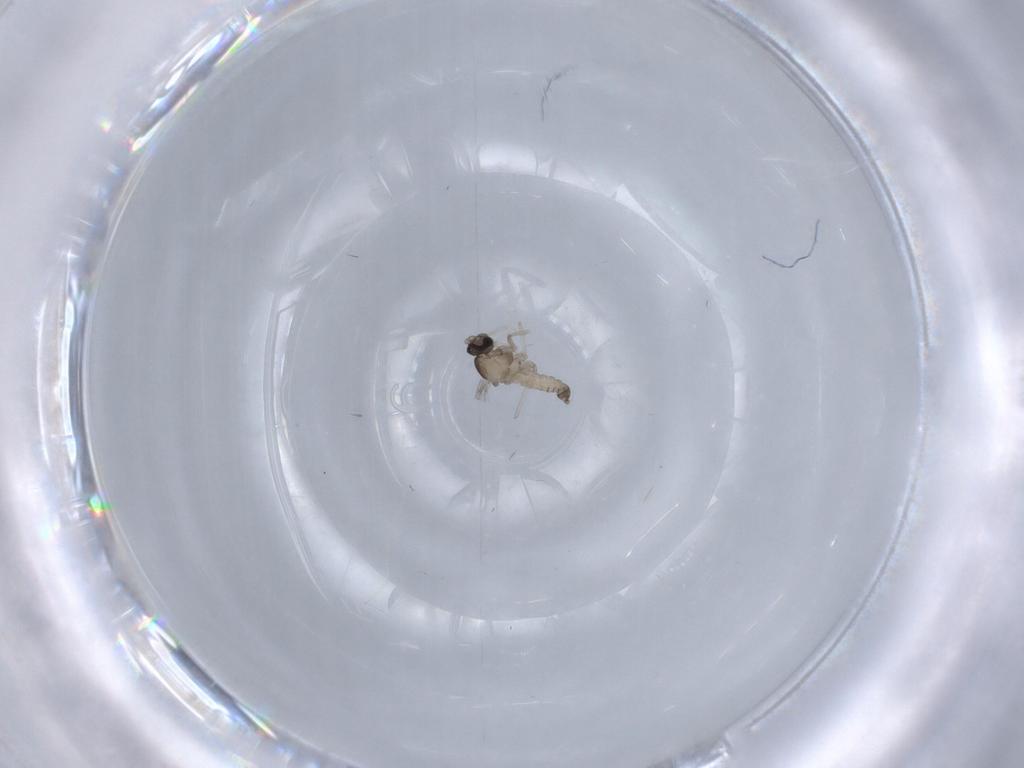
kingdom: Animalia
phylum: Arthropoda
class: Insecta
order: Diptera
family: Cecidomyiidae
